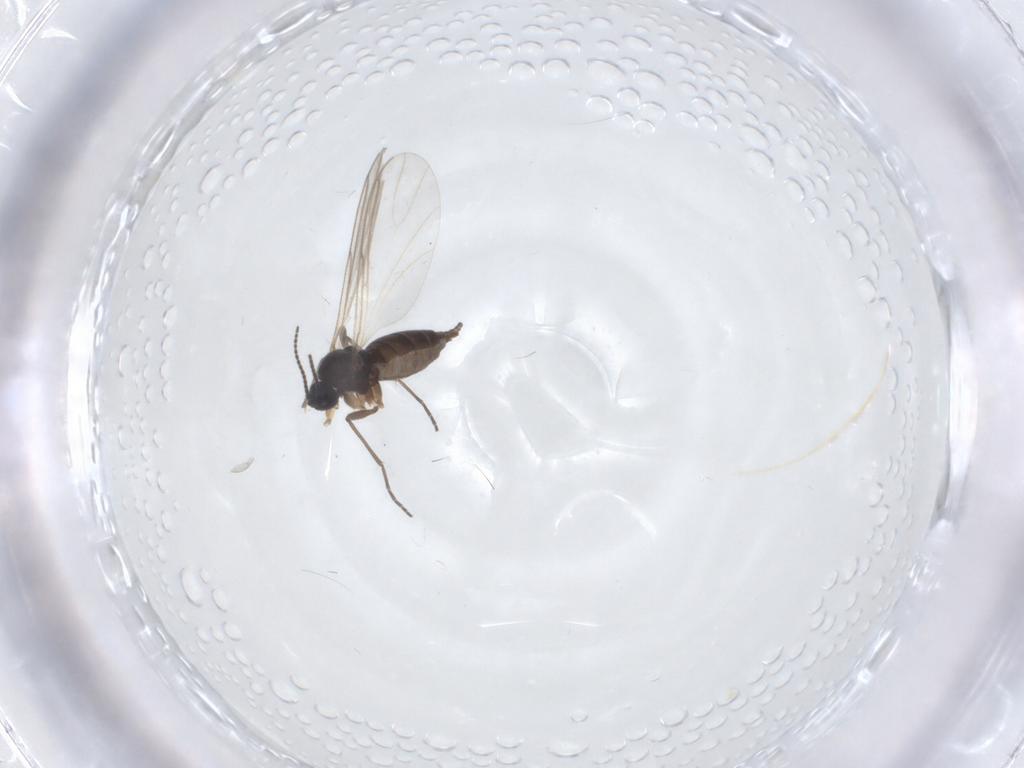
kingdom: Animalia
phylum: Arthropoda
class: Insecta
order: Diptera
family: Sciaridae
